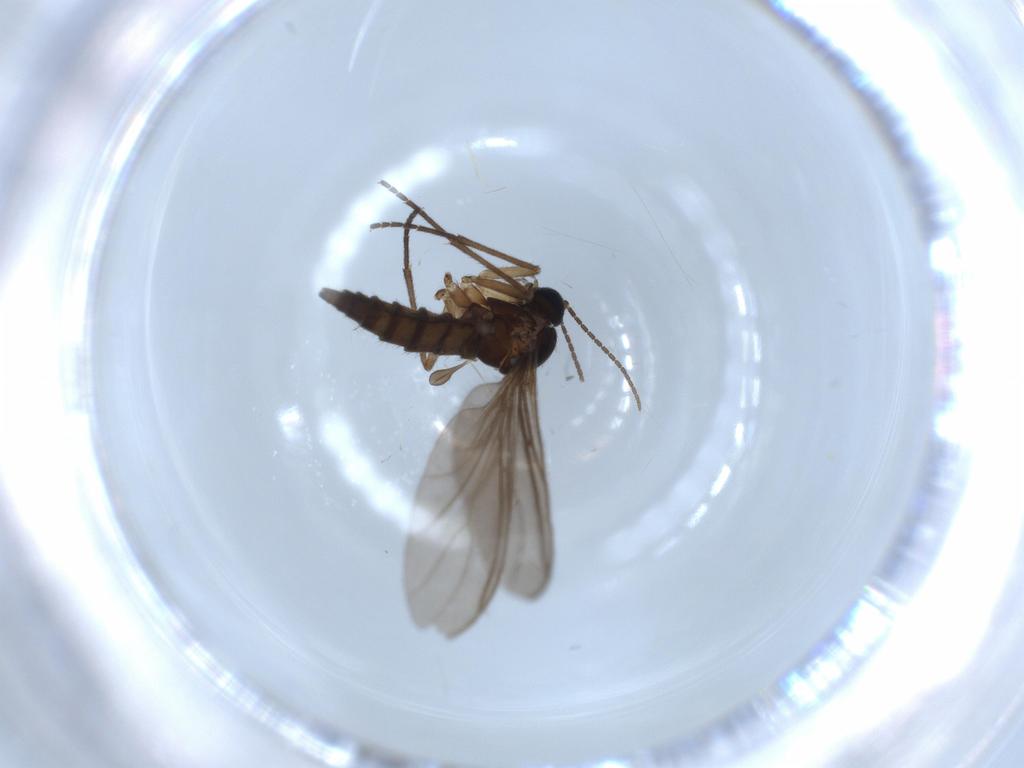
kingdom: Animalia
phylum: Arthropoda
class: Insecta
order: Diptera
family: Sciaridae
